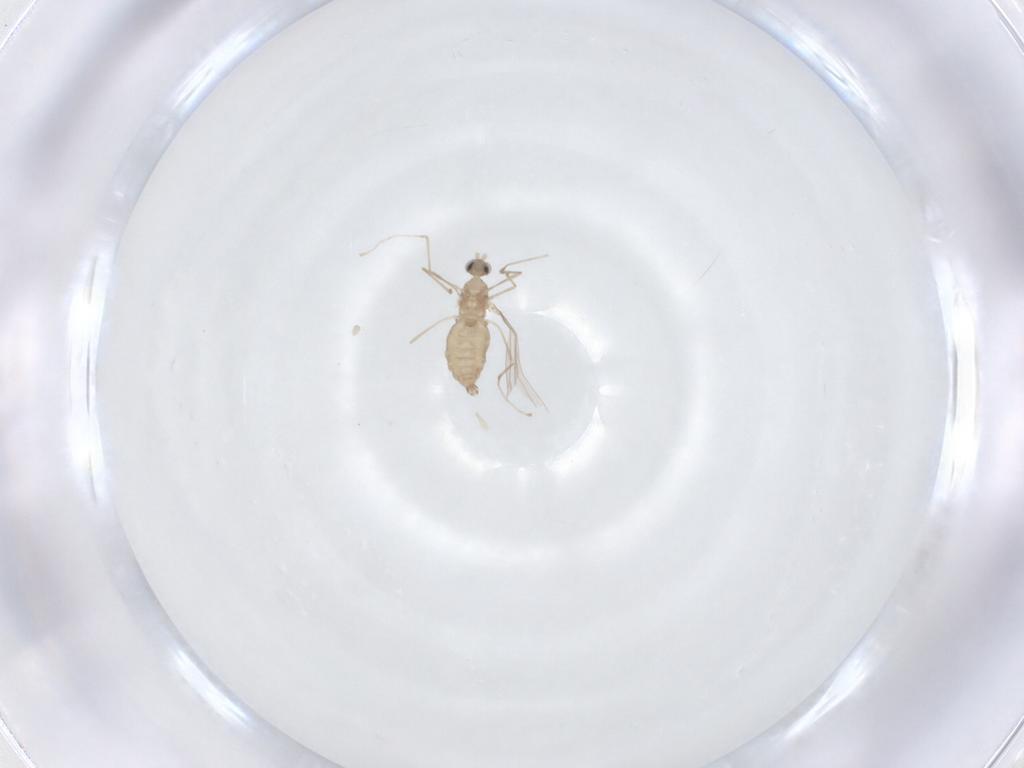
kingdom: Animalia
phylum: Arthropoda
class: Insecta
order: Diptera
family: Cecidomyiidae
